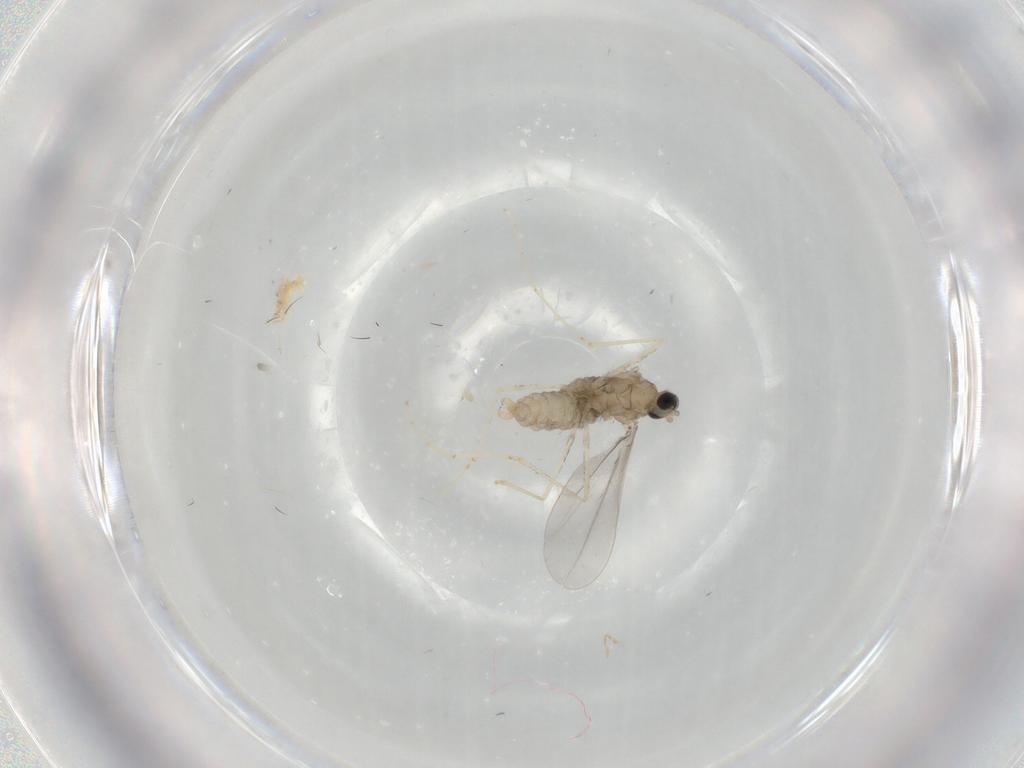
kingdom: Animalia
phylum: Arthropoda
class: Insecta
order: Diptera
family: Cecidomyiidae
